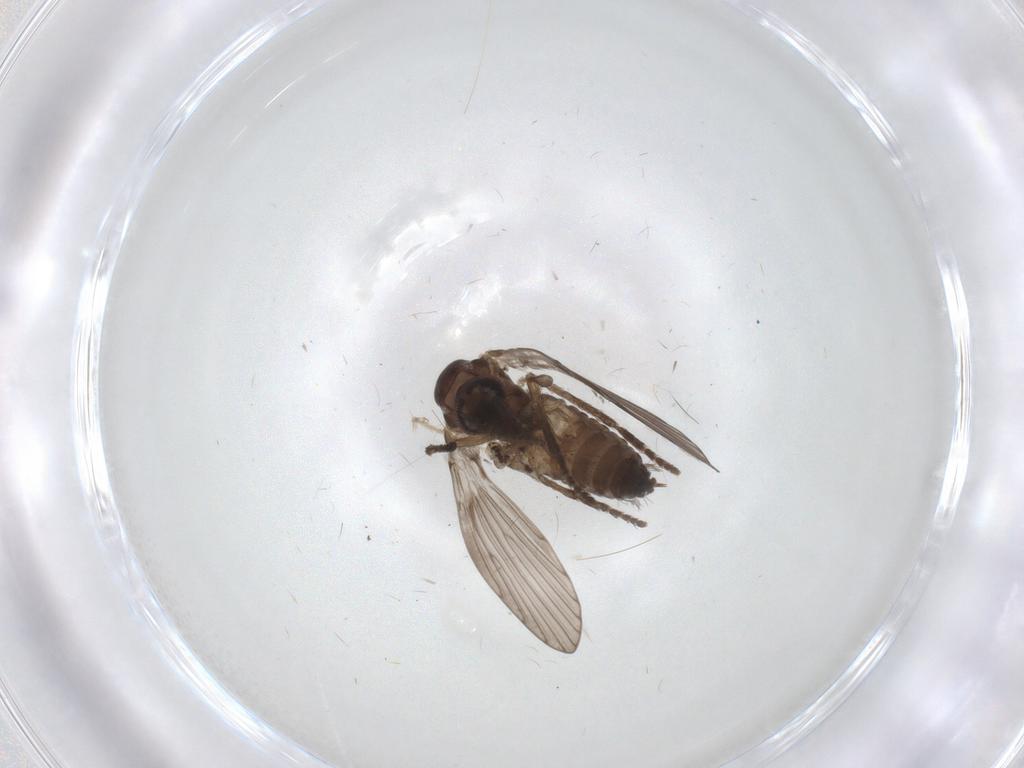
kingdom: Animalia
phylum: Arthropoda
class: Insecta
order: Diptera
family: Psychodidae
